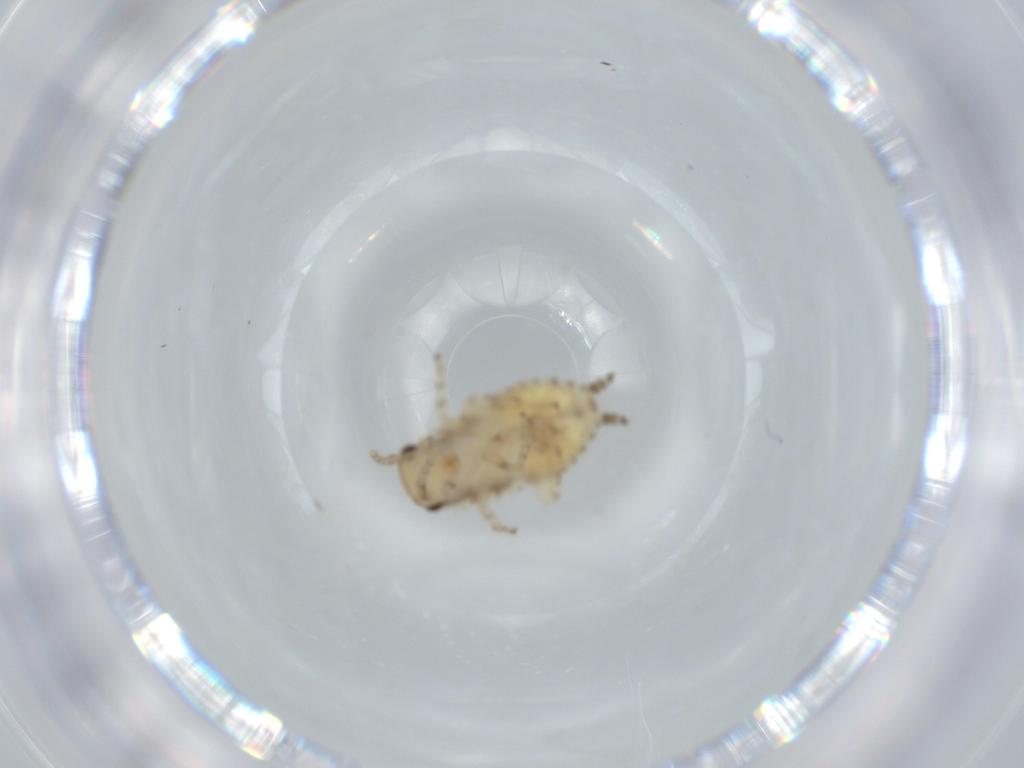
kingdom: Animalia
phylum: Arthropoda
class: Insecta
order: Blattodea
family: Ectobiidae
